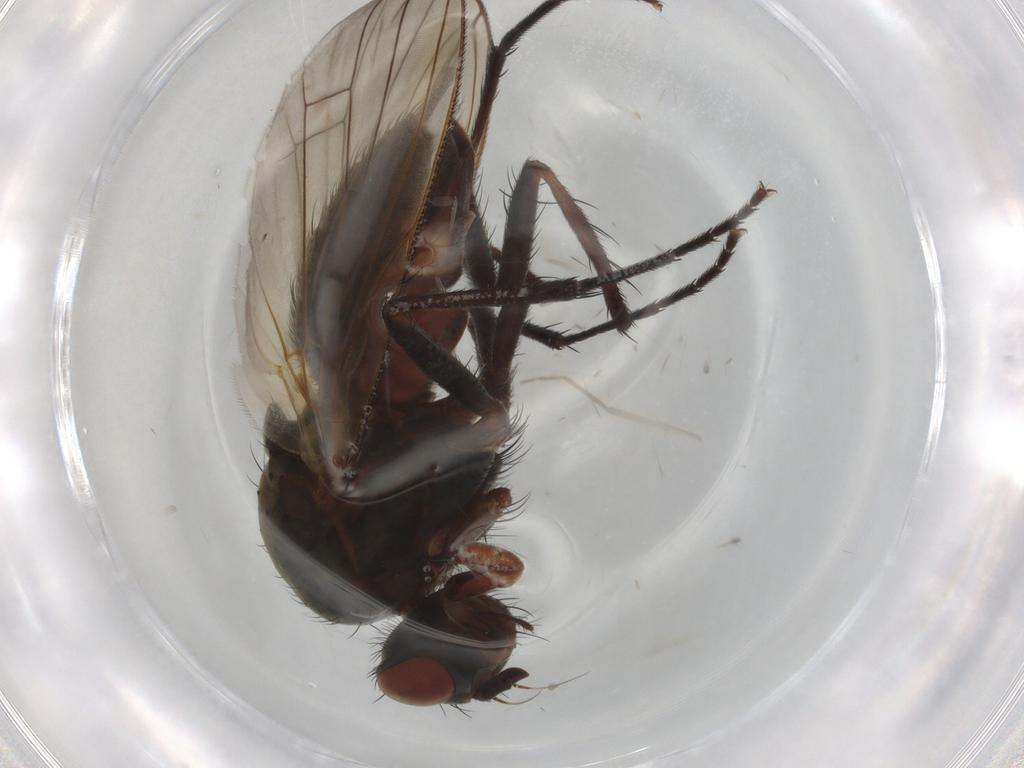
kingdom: Animalia
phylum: Arthropoda
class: Insecta
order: Diptera
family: Anthomyiidae
